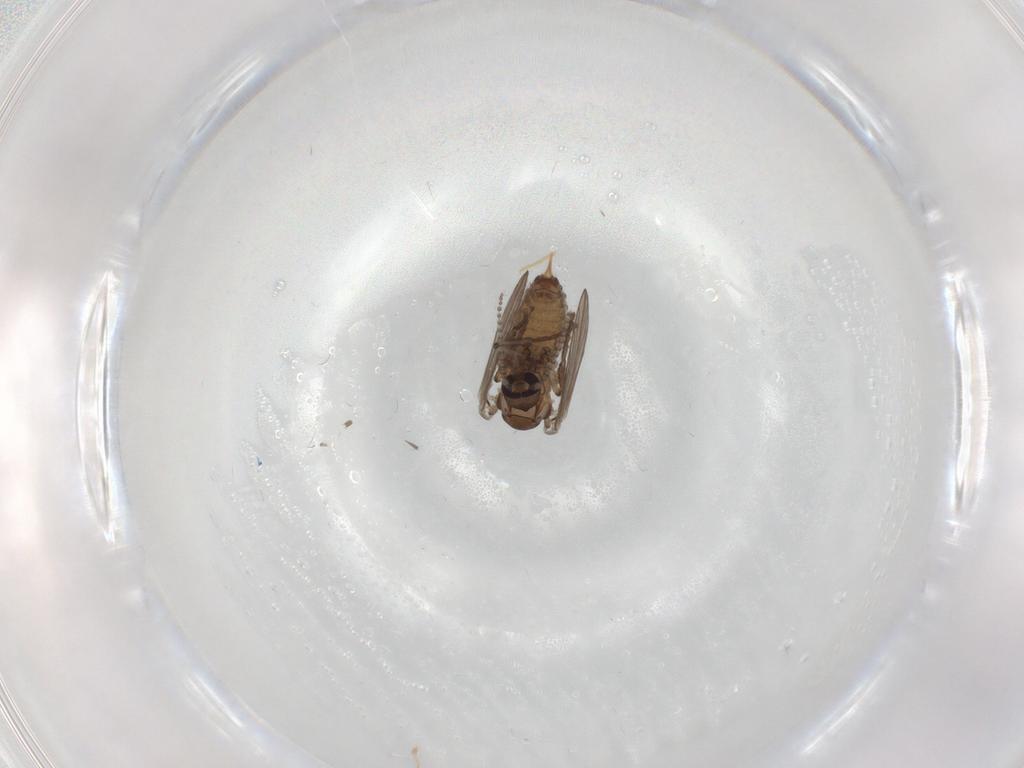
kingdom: Animalia
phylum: Arthropoda
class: Insecta
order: Diptera
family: Psychodidae
